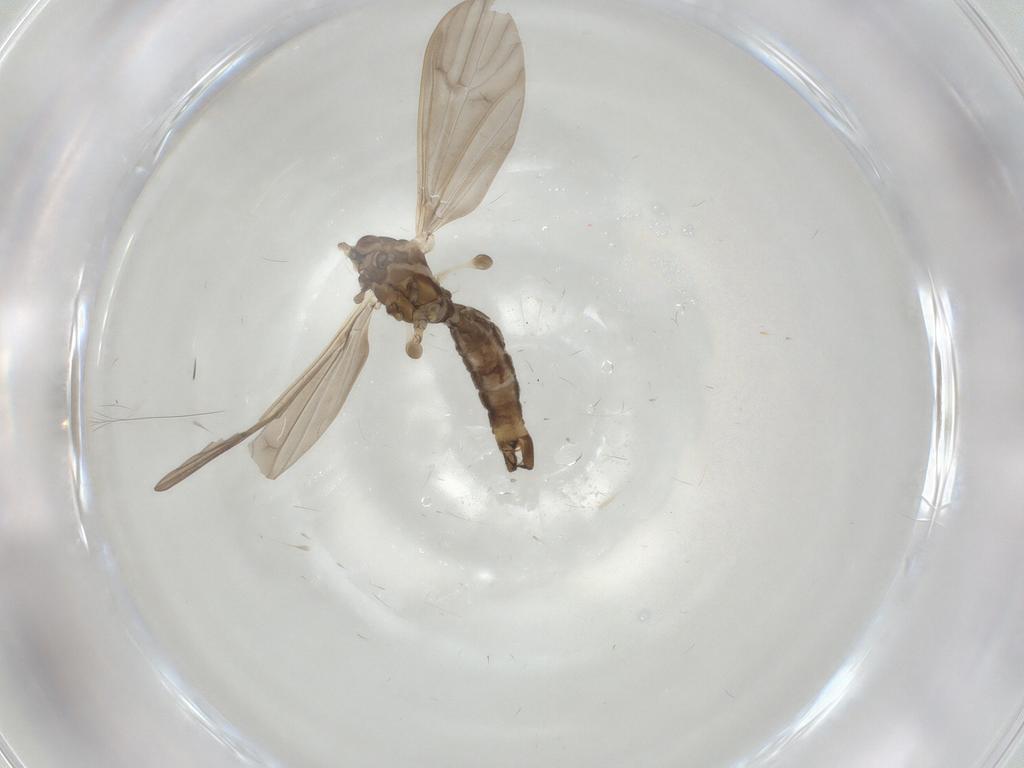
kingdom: Animalia
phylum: Arthropoda
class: Insecta
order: Diptera
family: Limoniidae
